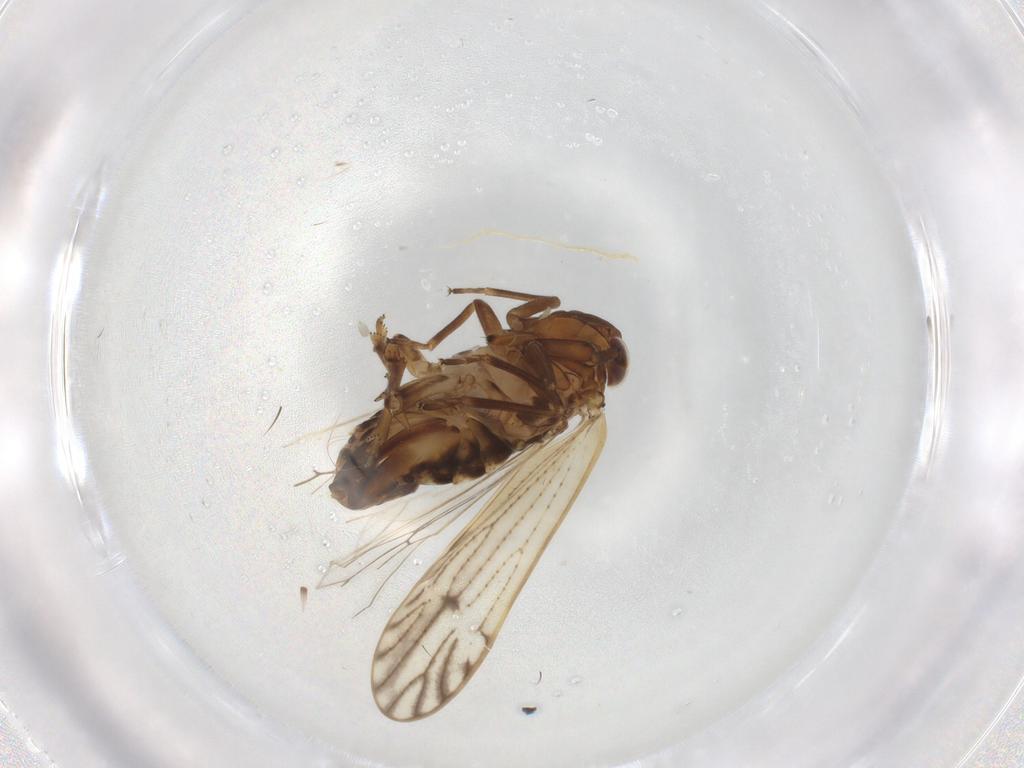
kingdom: Animalia
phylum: Arthropoda
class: Insecta
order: Hemiptera
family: Delphacidae
